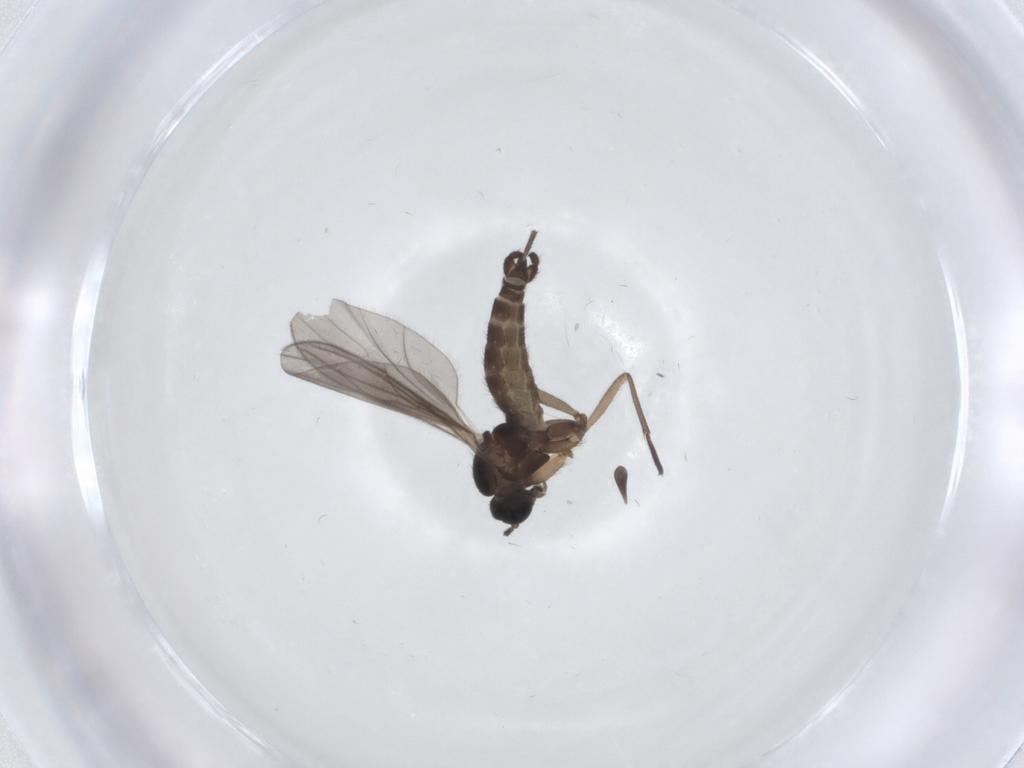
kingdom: Animalia
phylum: Arthropoda
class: Insecta
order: Diptera
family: Sciaridae
